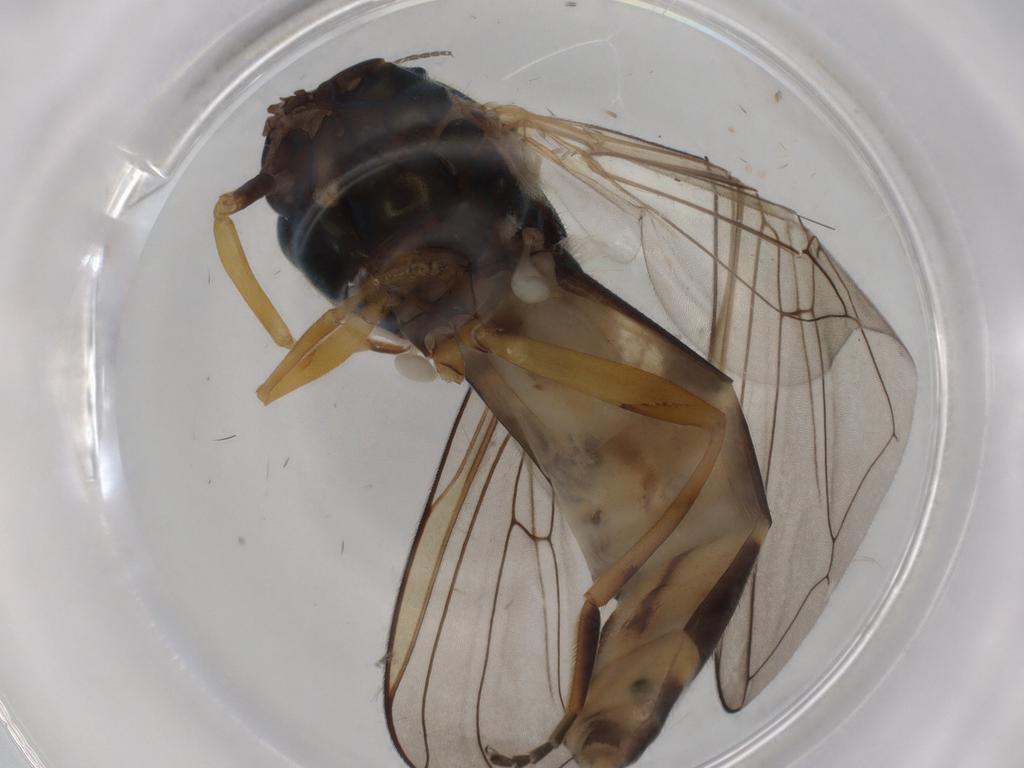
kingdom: Animalia
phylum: Arthropoda
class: Insecta
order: Diptera
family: Syrphidae
